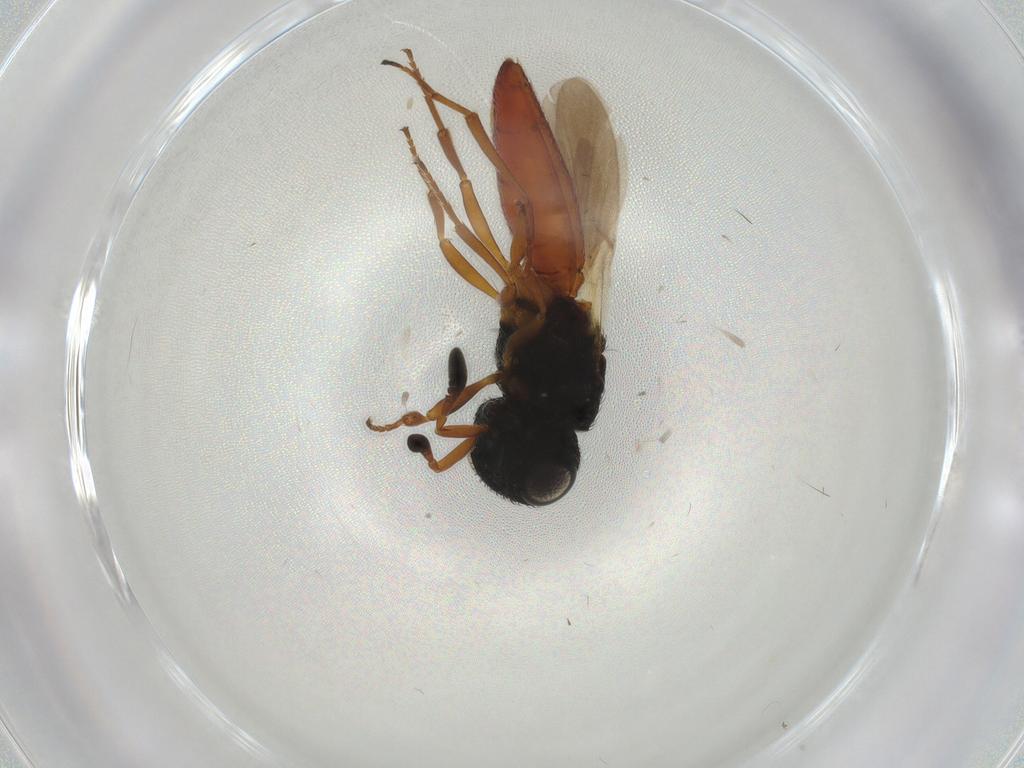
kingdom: Animalia
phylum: Arthropoda
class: Insecta
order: Hymenoptera
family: Scelionidae
